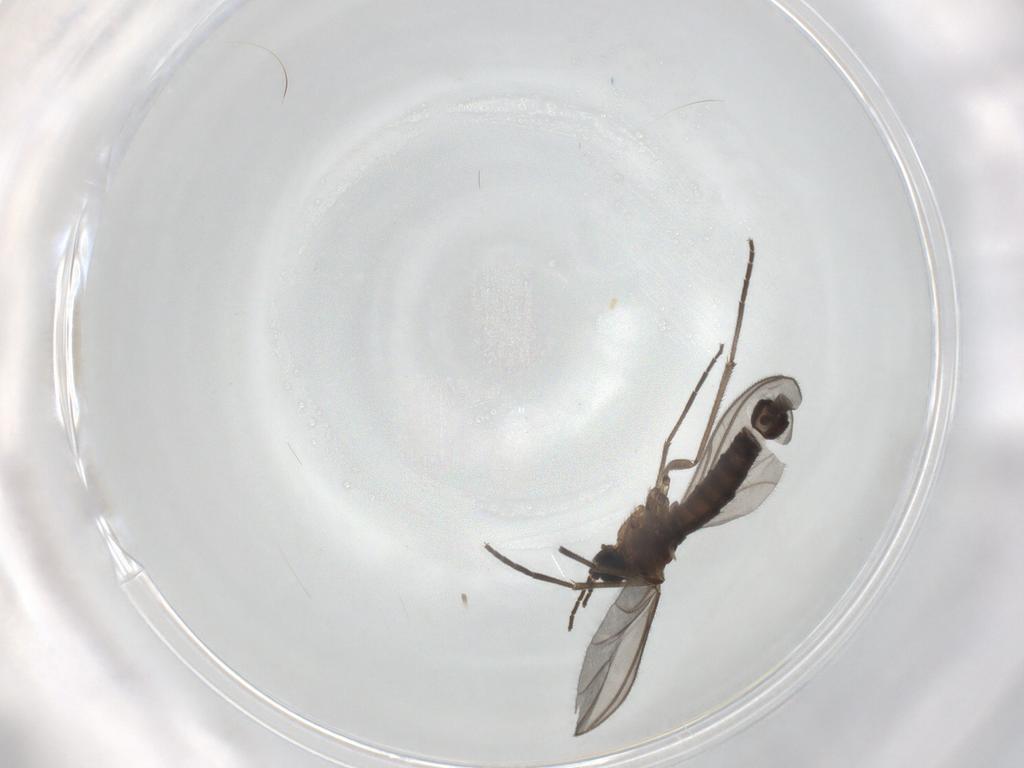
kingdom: Animalia
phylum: Arthropoda
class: Insecta
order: Diptera
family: Sciaridae
